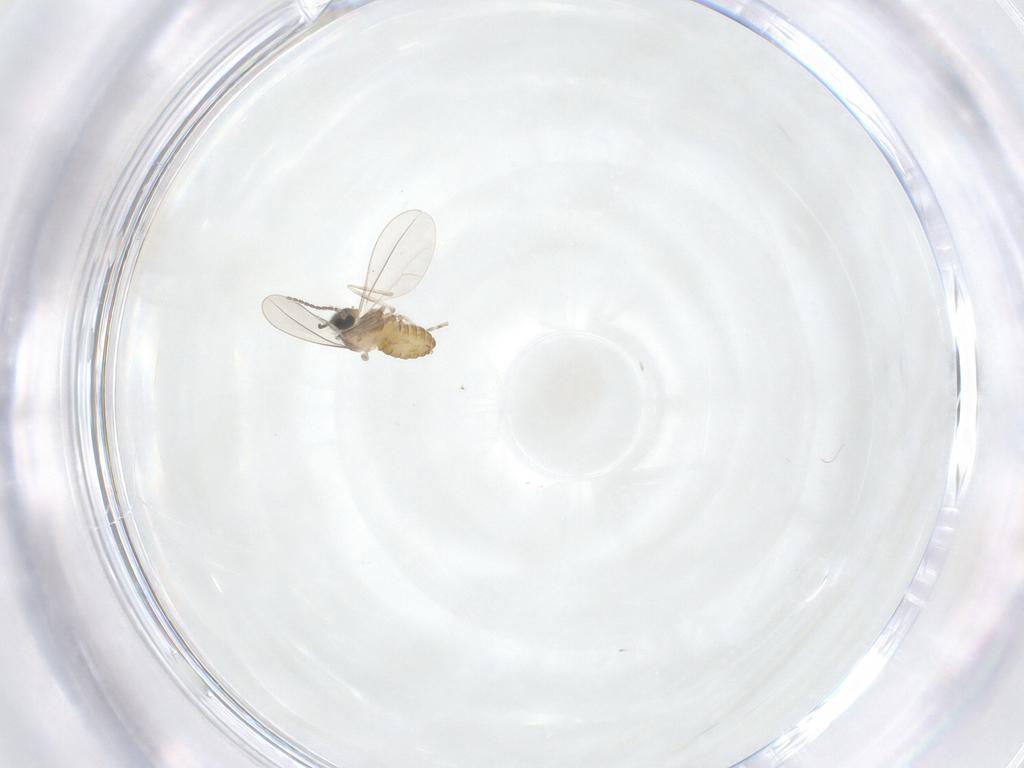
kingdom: Animalia
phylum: Arthropoda
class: Insecta
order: Diptera
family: Cecidomyiidae
